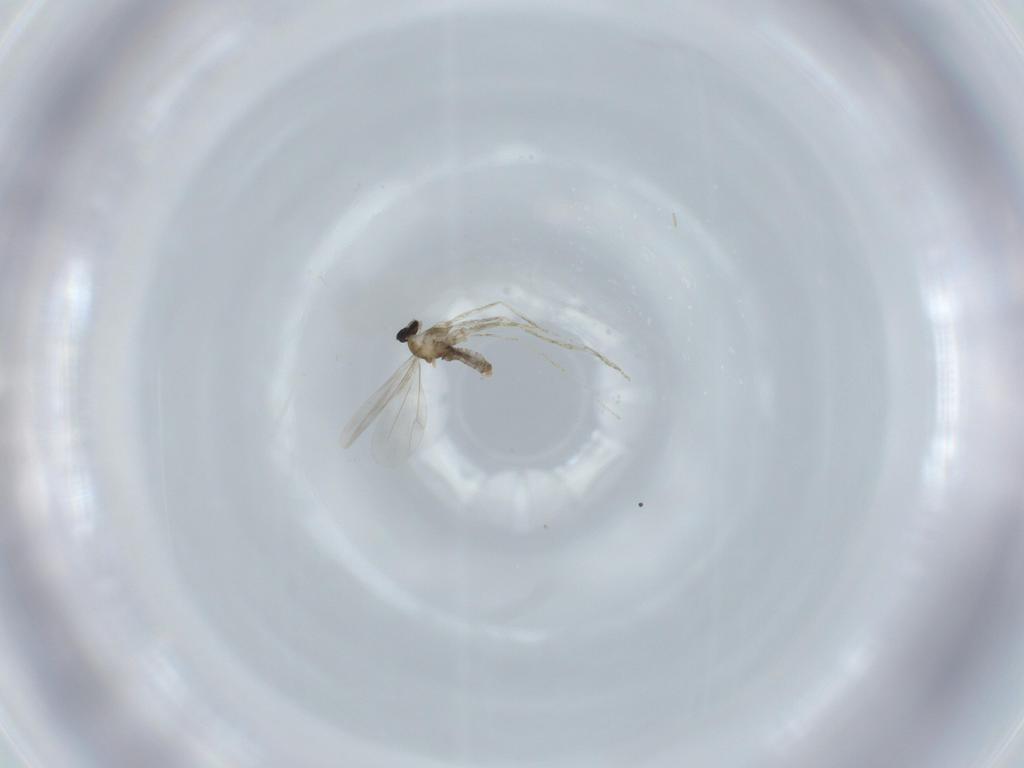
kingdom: Animalia
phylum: Arthropoda
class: Insecta
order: Diptera
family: Cecidomyiidae
